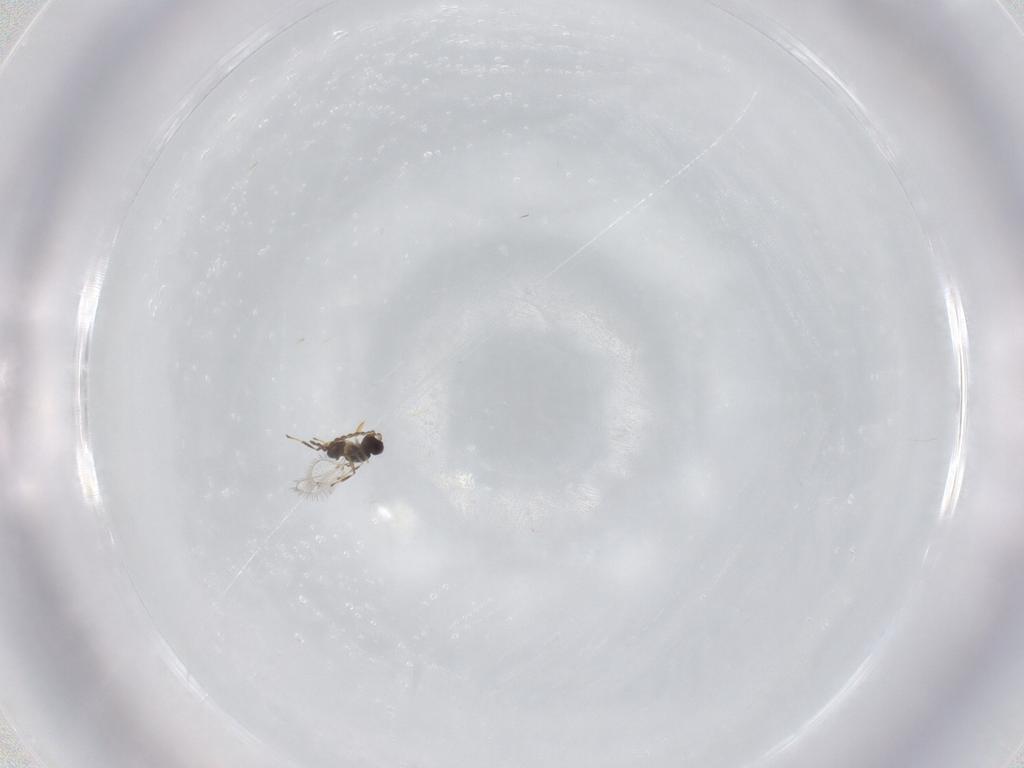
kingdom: Animalia
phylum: Arthropoda
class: Insecta
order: Hymenoptera
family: Mymaridae
